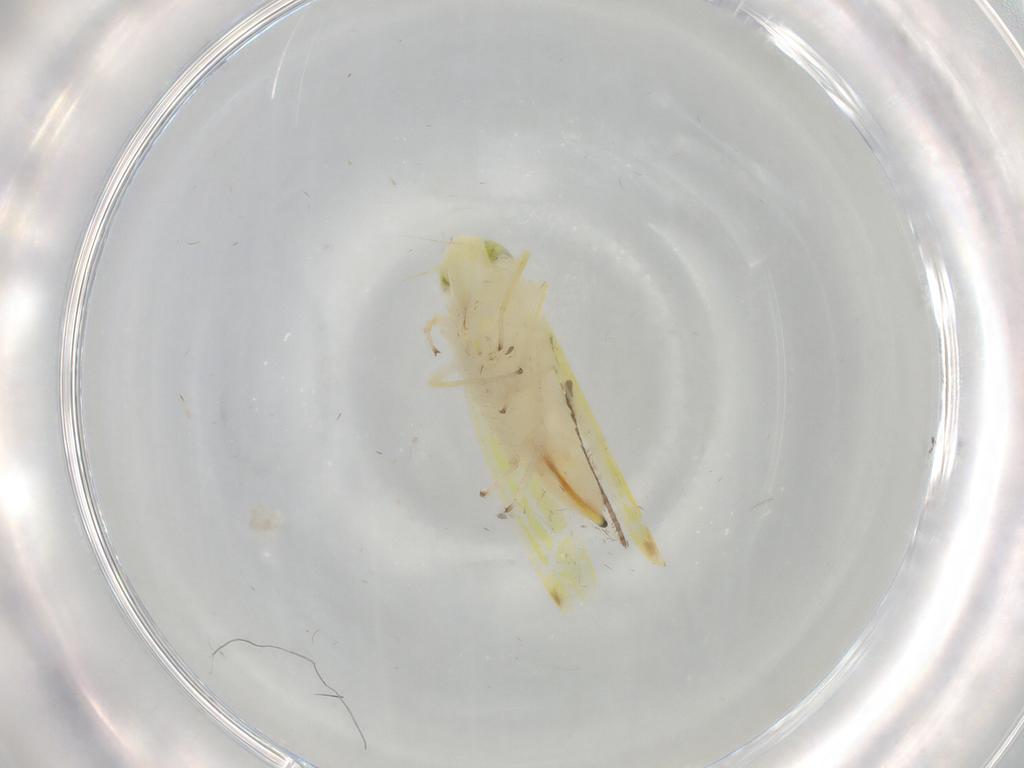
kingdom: Animalia
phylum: Arthropoda
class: Insecta
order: Hemiptera
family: Cicadellidae
